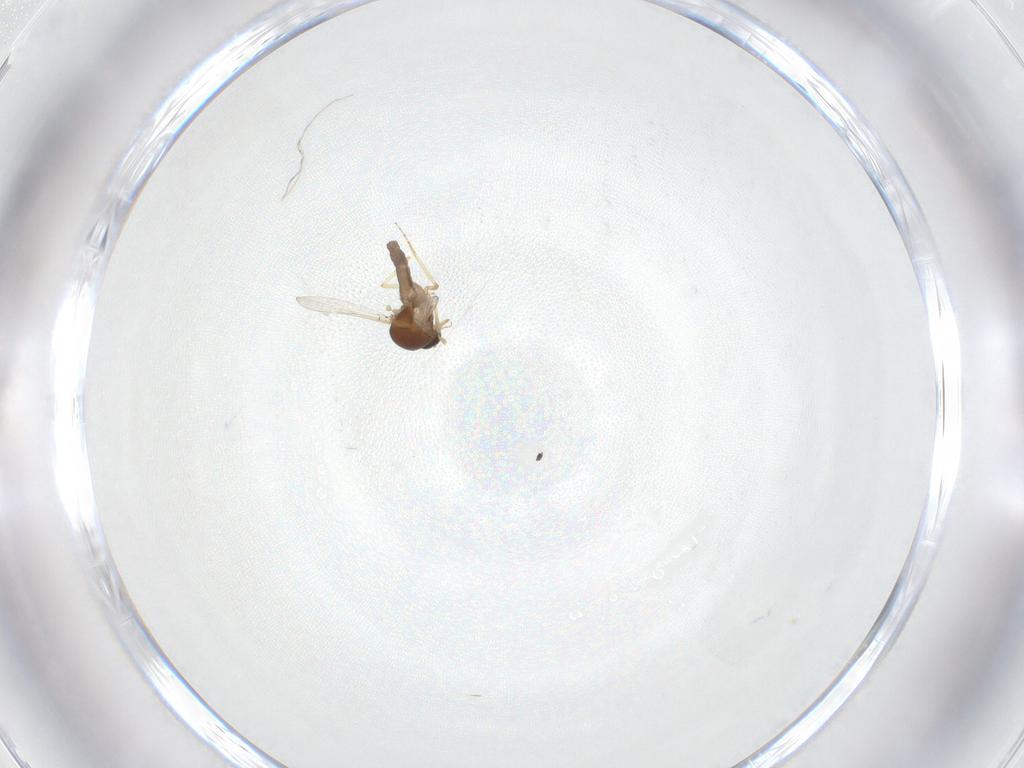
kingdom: Animalia
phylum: Arthropoda
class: Insecta
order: Diptera
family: Ceratopogonidae
